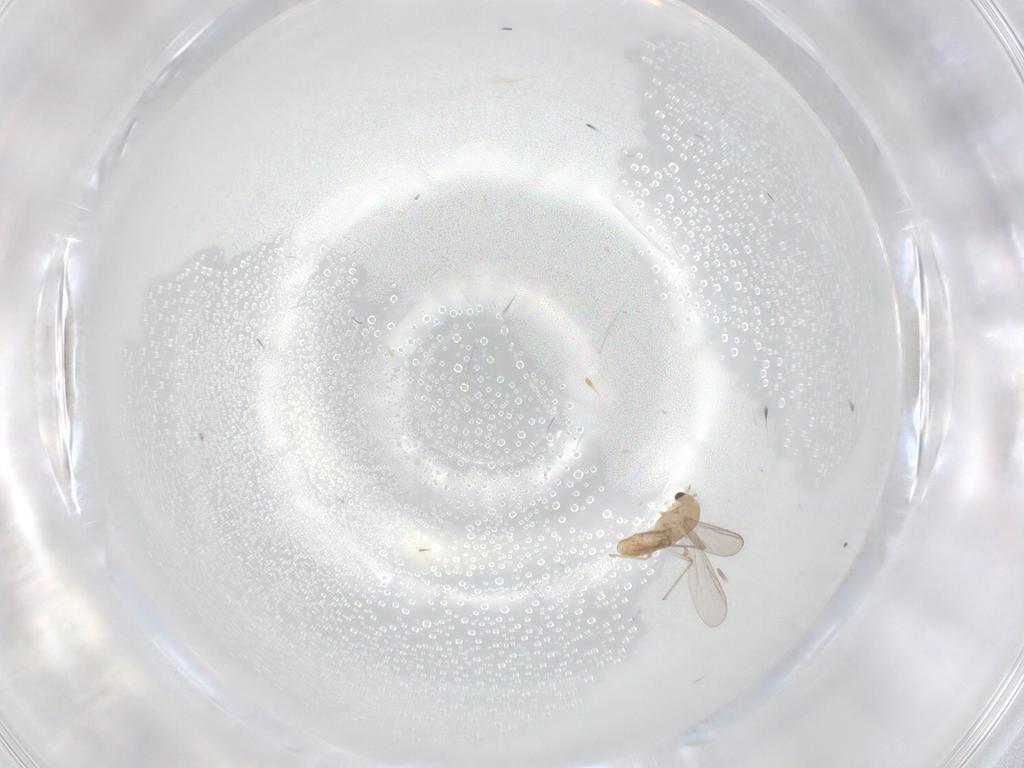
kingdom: Animalia
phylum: Arthropoda
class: Insecta
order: Diptera
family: Chironomidae
